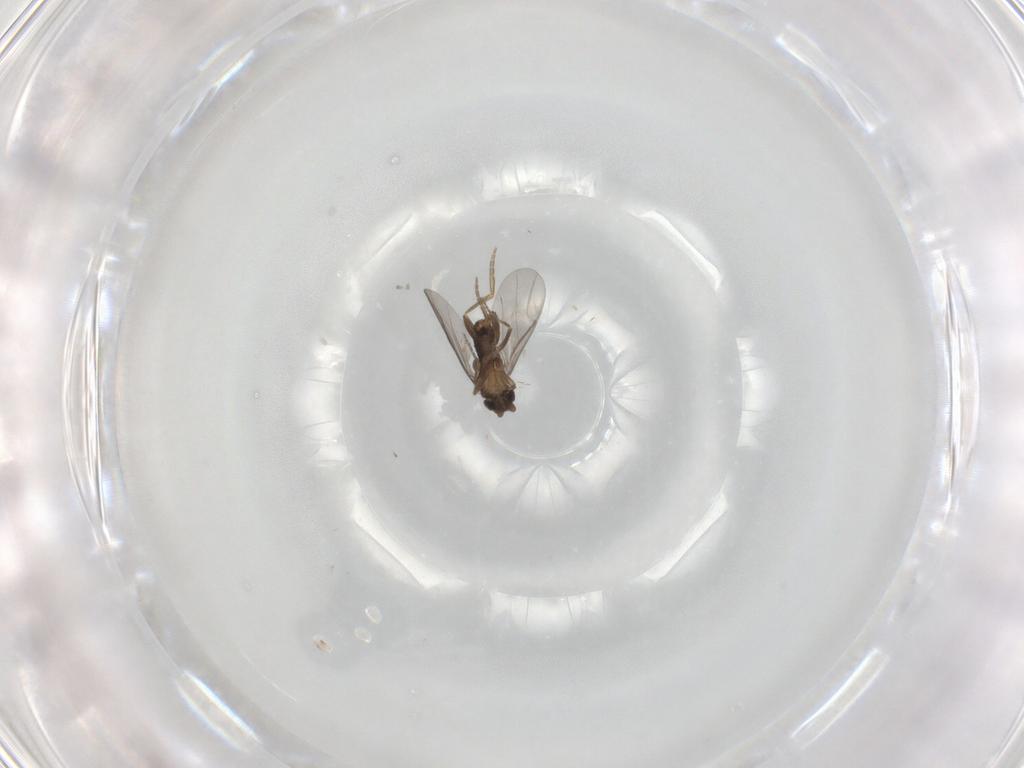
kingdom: Animalia
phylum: Arthropoda
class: Insecta
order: Diptera
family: Chironomidae
